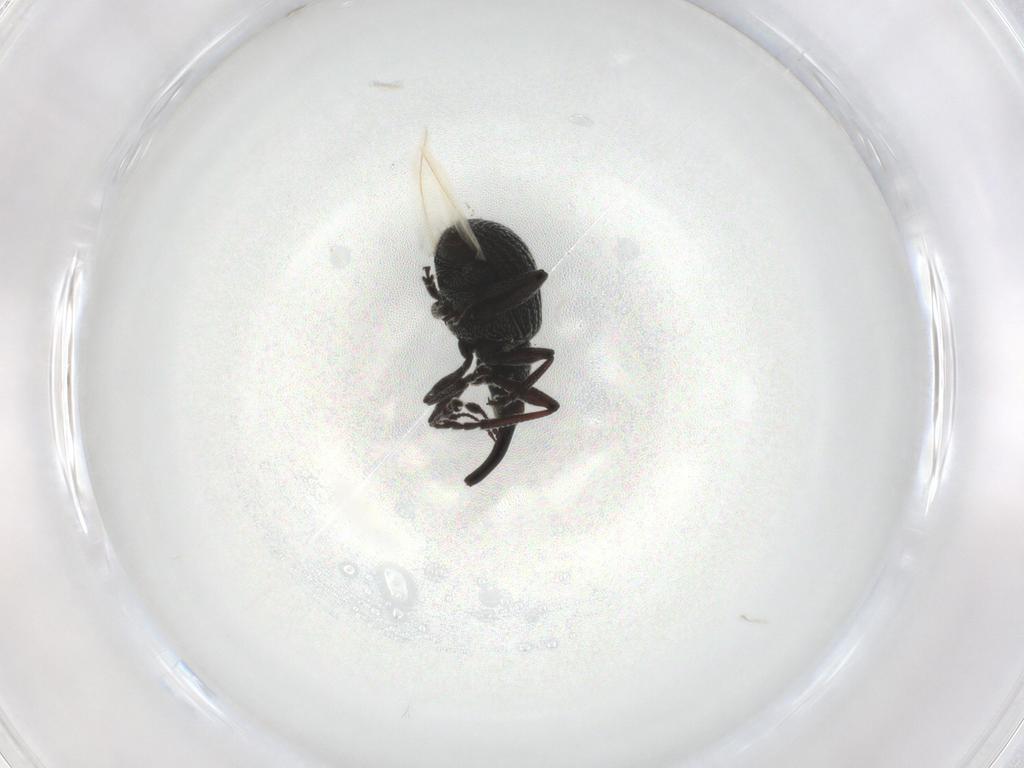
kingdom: Animalia
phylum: Arthropoda
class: Insecta
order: Coleoptera
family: Brentidae
